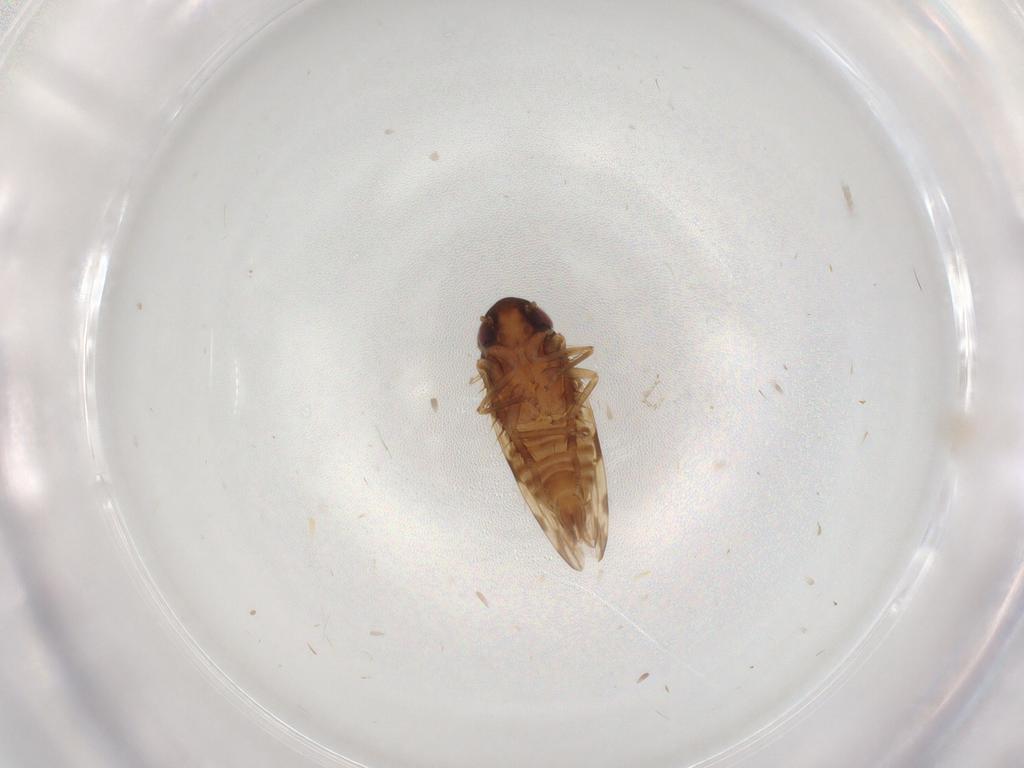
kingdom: Animalia
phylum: Arthropoda
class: Insecta
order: Hemiptera
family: Cicadellidae
